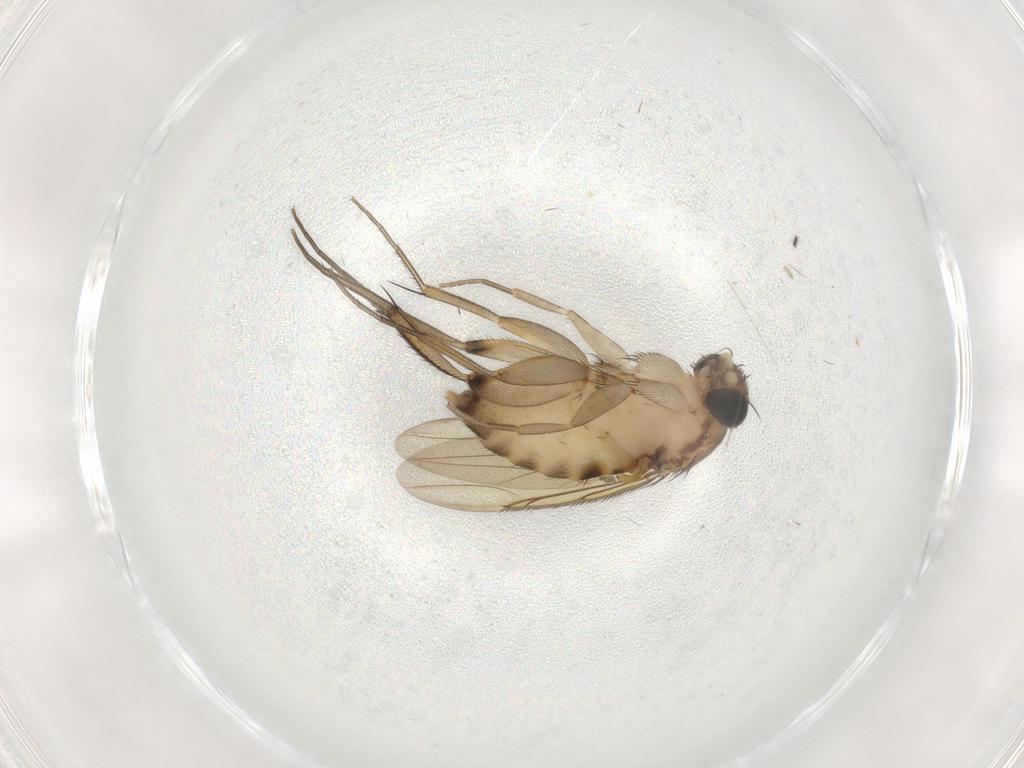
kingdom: Animalia
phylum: Arthropoda
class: Insecta
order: Diptera
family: Phoridae
